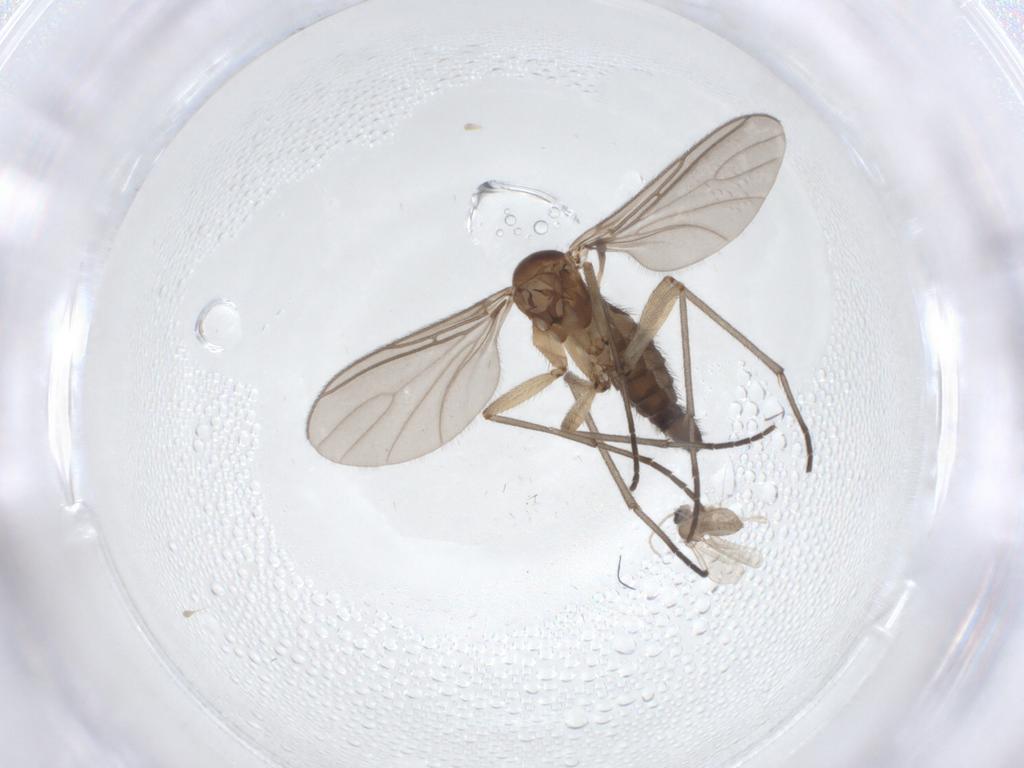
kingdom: Animalia
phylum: Arthropoda
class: Insecta
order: Diptera
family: Sciaridae
